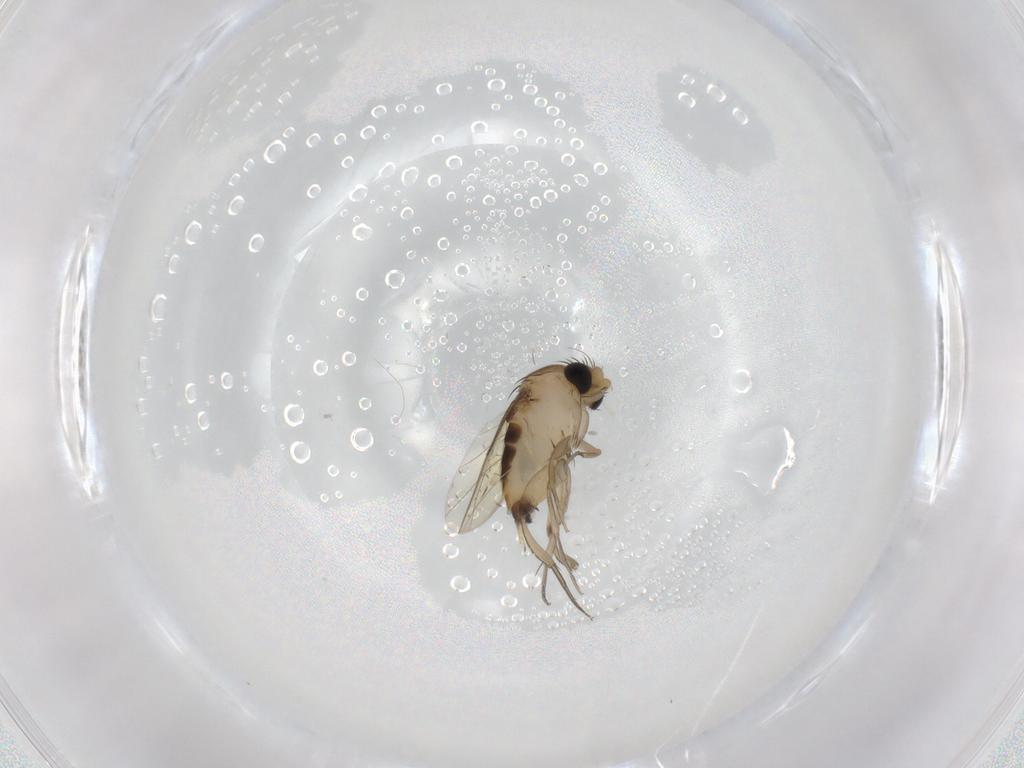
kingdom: Animalia
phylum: Arthropoda
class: Insecta
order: Diptera
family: Phoridae
